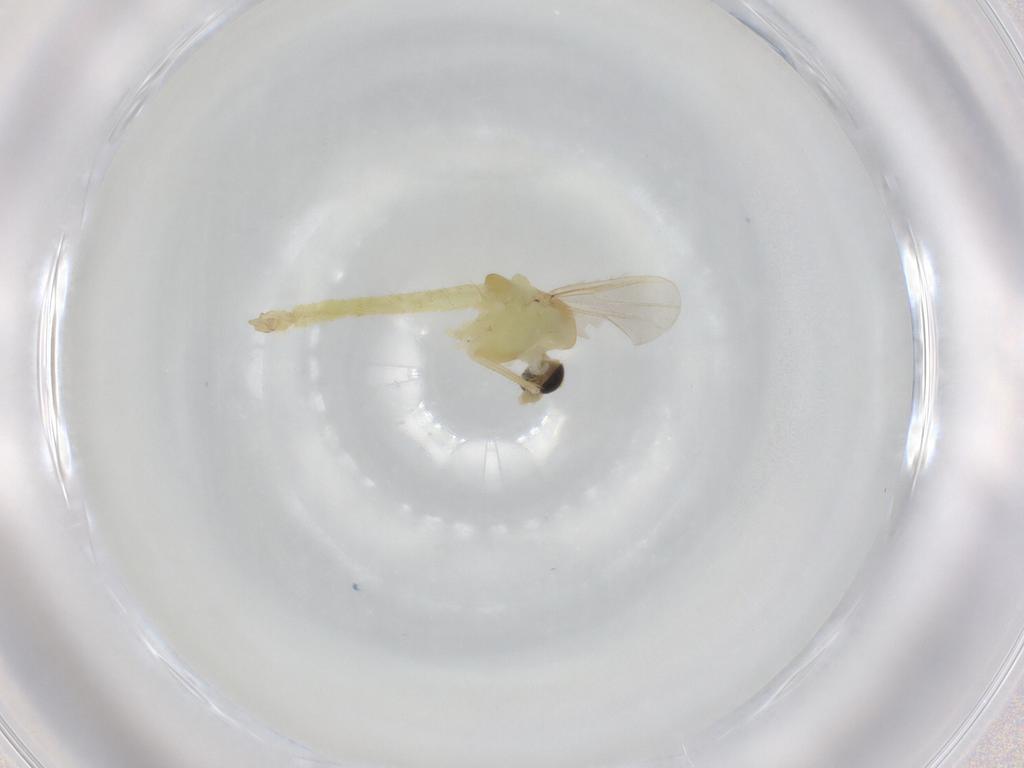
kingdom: Animalia
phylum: Arthropoda
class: Insecta
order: Diptera
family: Chironomidae
